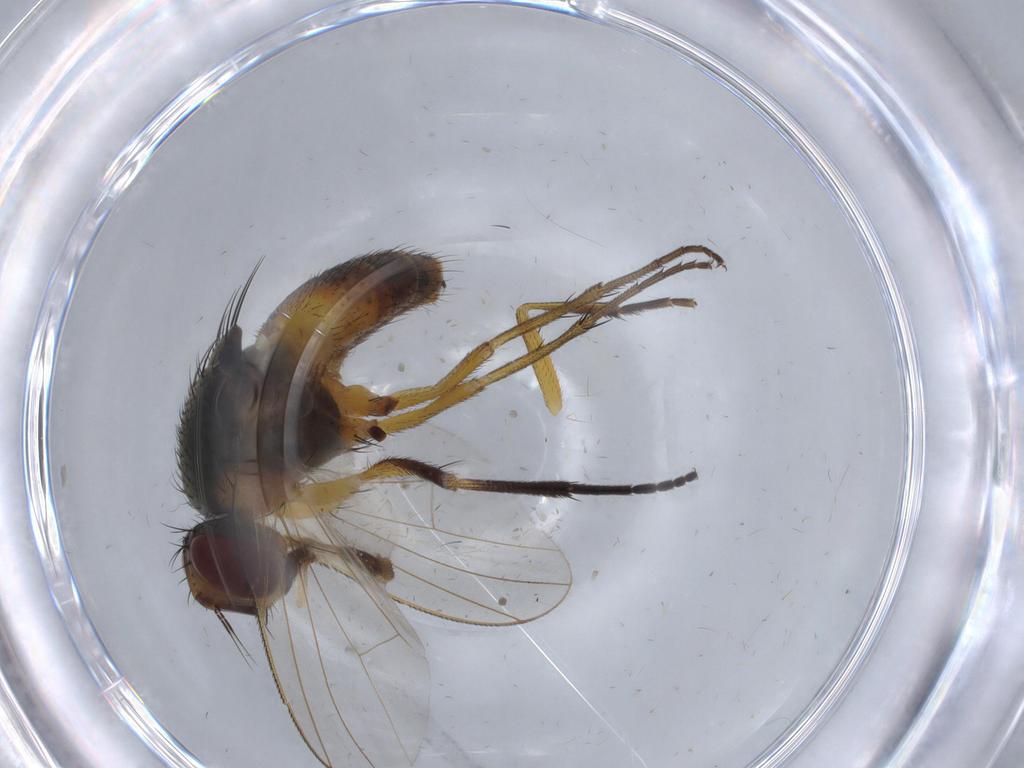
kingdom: Animalia
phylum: Arthropoda
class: Insecta
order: Diptera
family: Muscidae
